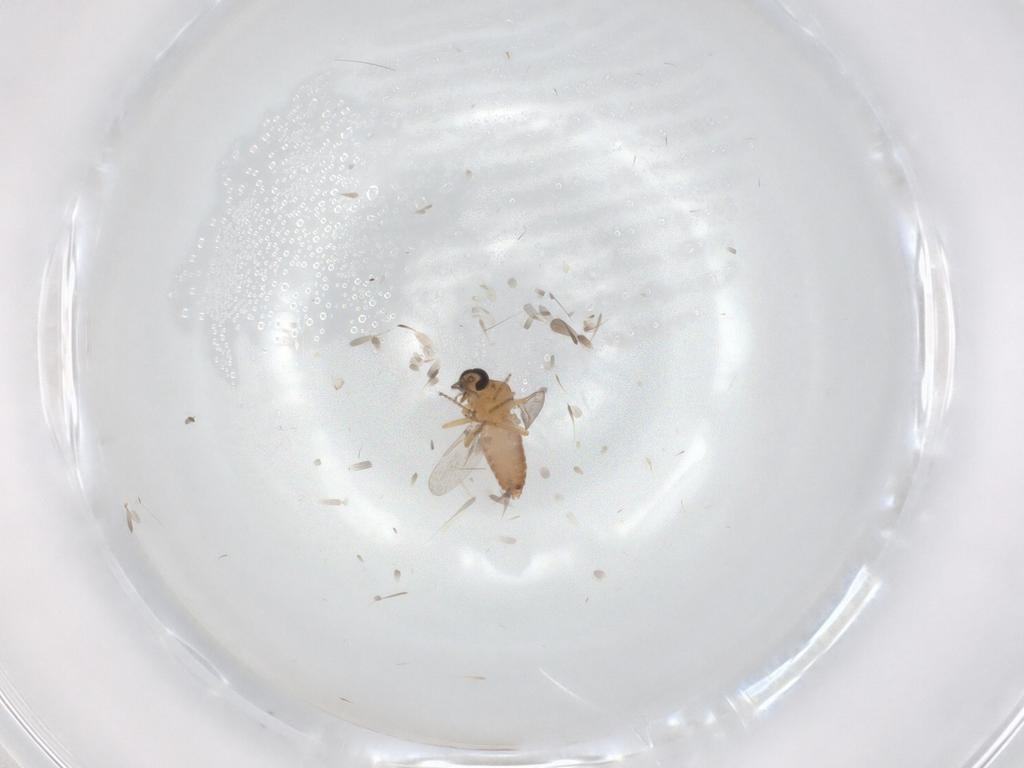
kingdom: Animalia
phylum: Arthropoda
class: Insecta
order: Diptera
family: Ceratopogonidae
